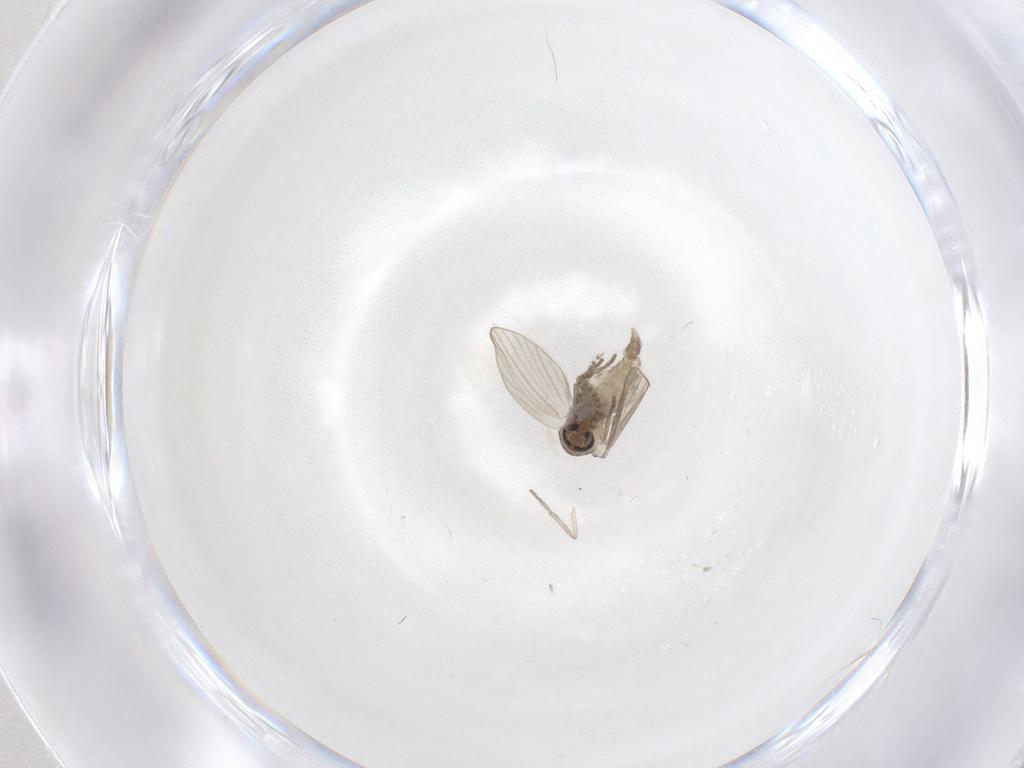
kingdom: Animalia
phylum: Arthropoda
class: Insecta
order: Diptera
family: Psychodidae
